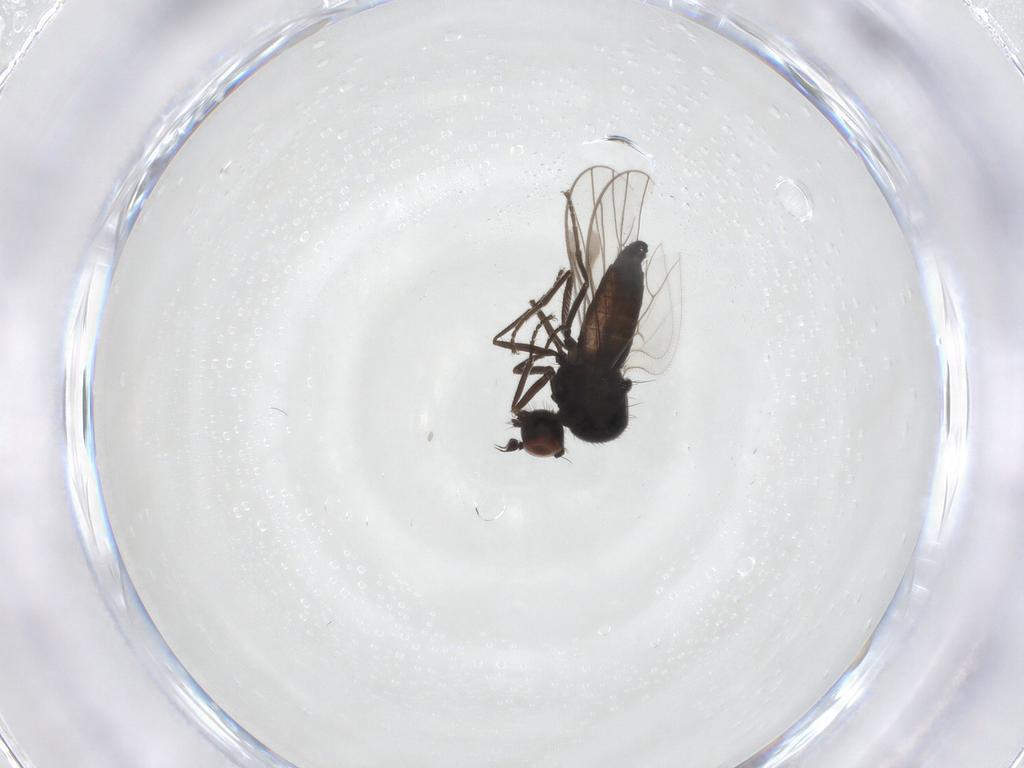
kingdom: Animalia
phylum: Arthropoda
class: Insecta
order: Diptera
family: Hybotidae
